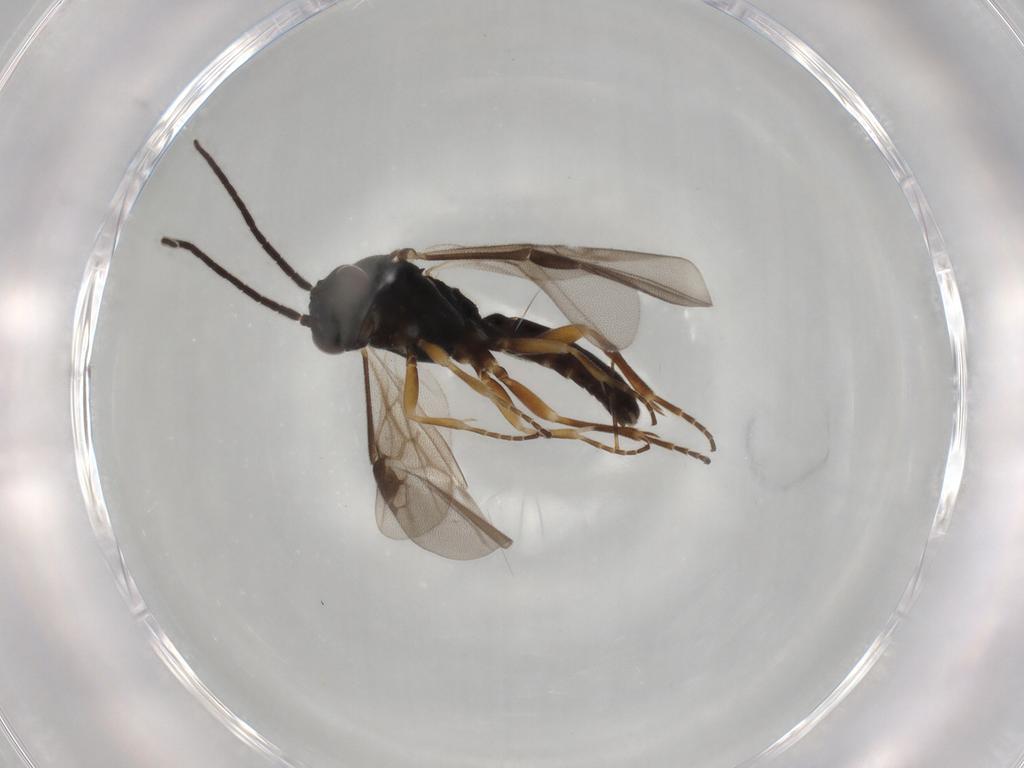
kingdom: Animalia
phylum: Arthropoda
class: Insecta
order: Hymenoptera
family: Braconidae
